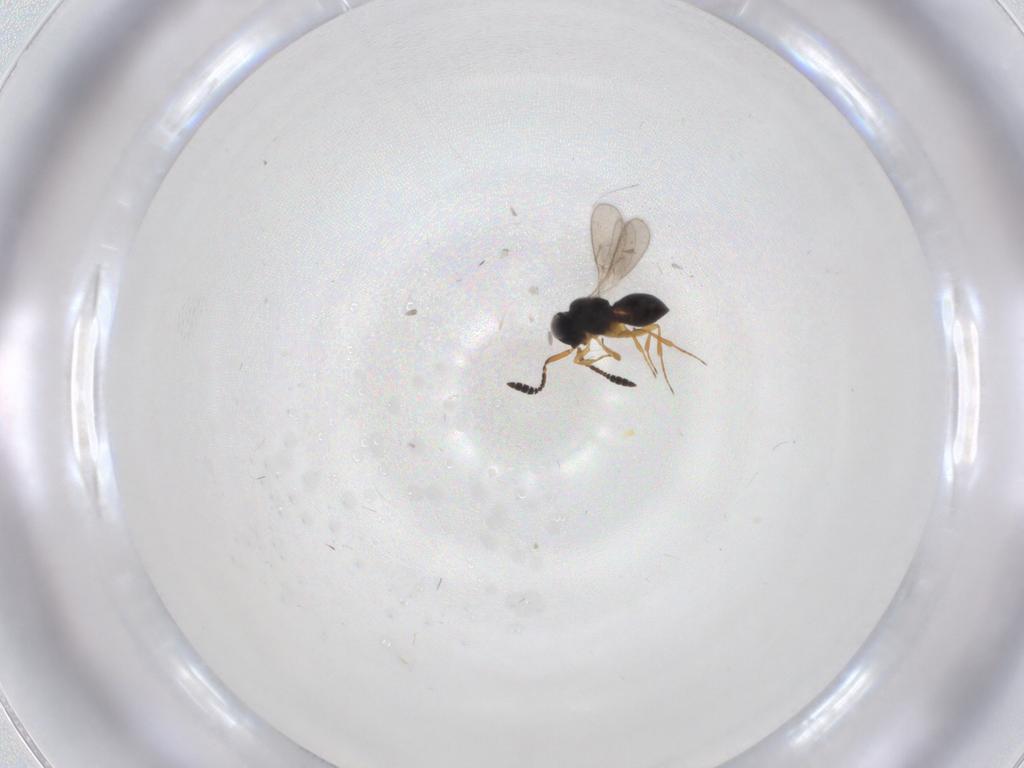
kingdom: Animalia
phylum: Arthropoda
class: Insecta
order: Hymenoptera
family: Scelionidae
